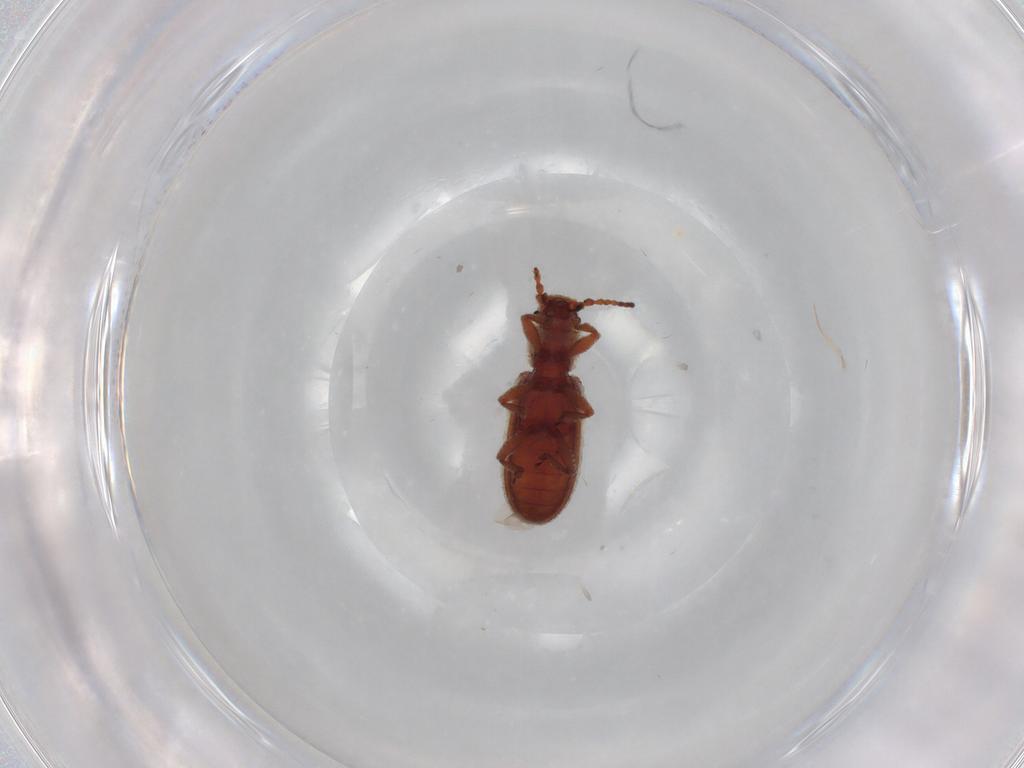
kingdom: Animalia
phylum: Arthropoda
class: Insecta
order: Coleoptera
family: Zopheridae
